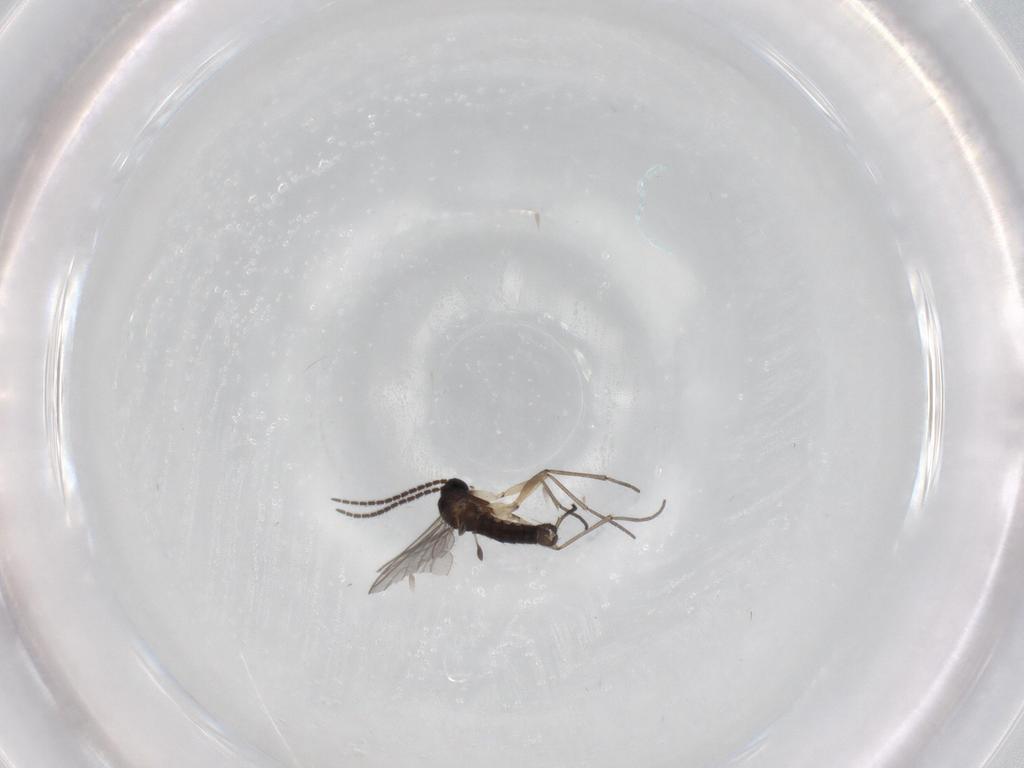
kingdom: Animalia
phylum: Arthropoda
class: Insecta
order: Diptera
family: Sciaridae
